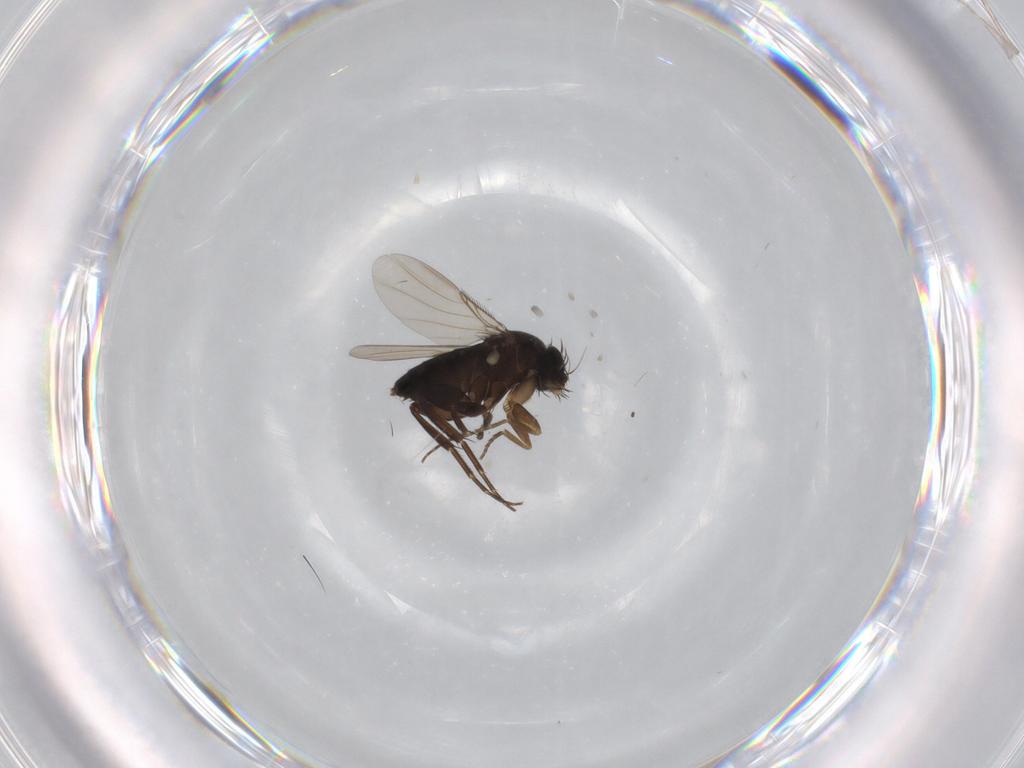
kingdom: Animalia
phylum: Arthropoda
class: Insecta
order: Diptera
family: Phoridae
